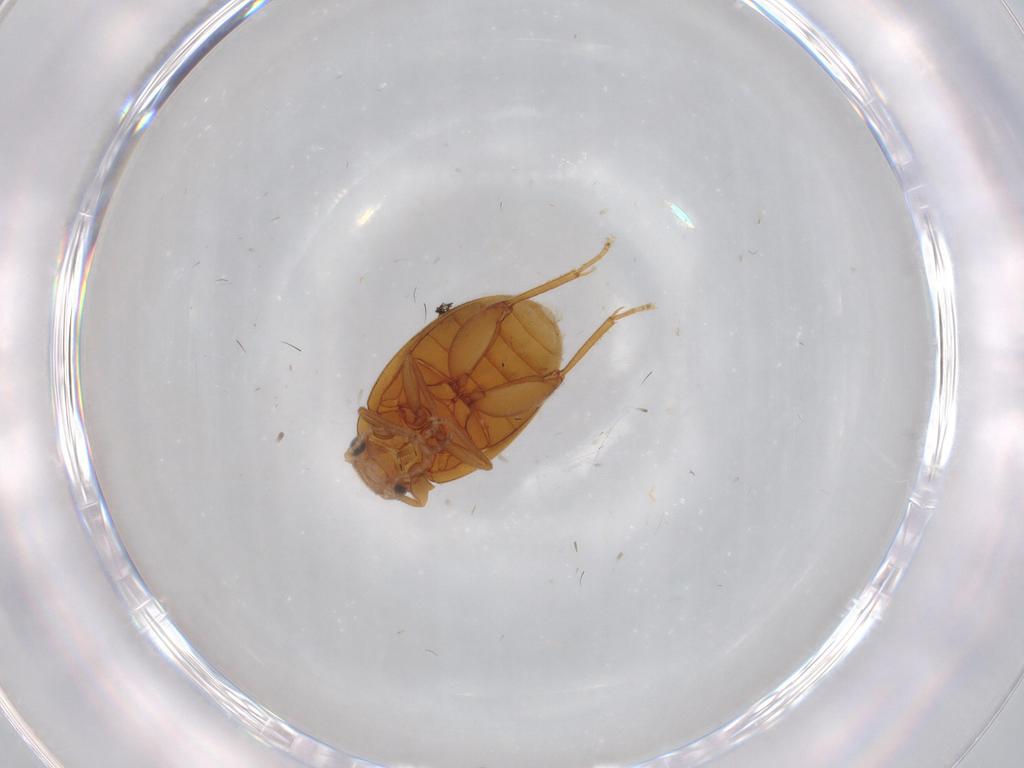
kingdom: Animalia
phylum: Arthropoda
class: Insecta
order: Coleoptera
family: Scirtidae
